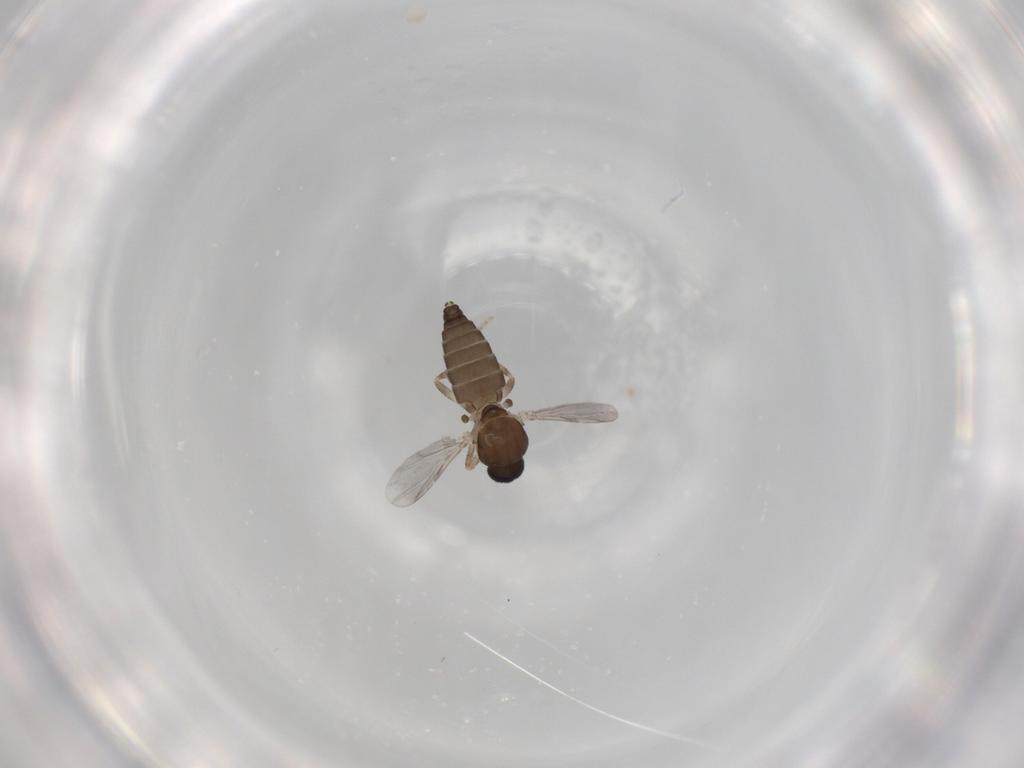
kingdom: Animalia
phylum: Arthropoda
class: Insecta
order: Diptera
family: Ceratopogonidae
